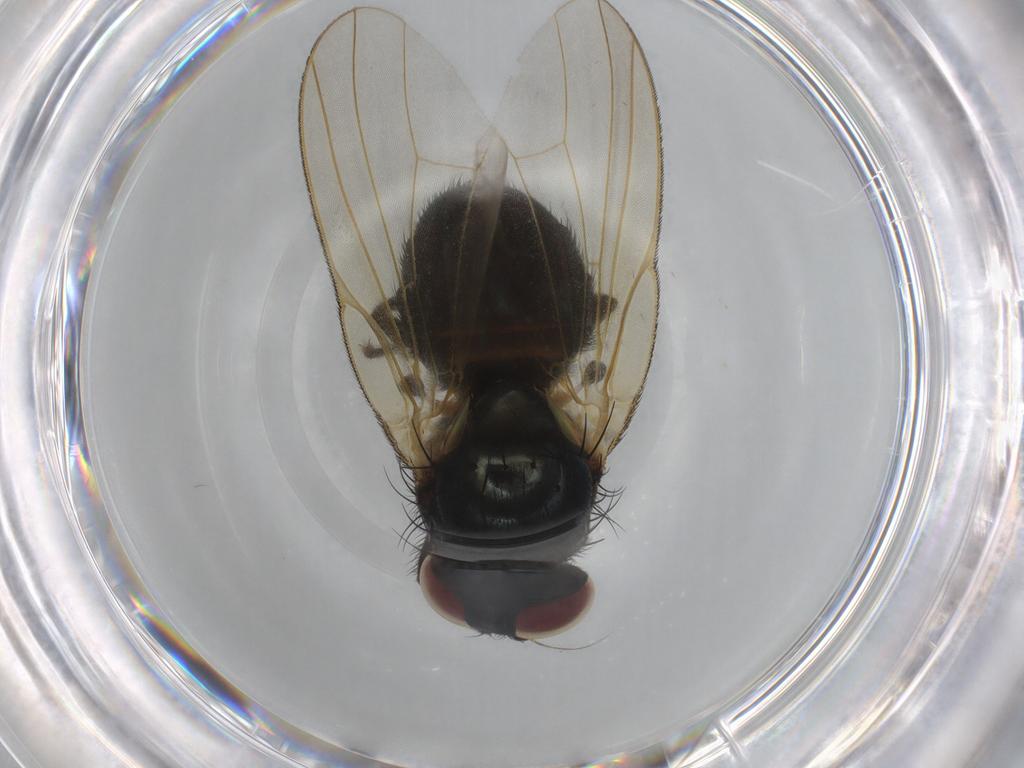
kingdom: Animalia
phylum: Arthropoda
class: Insecta
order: Diptera
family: Lonchaeidae
